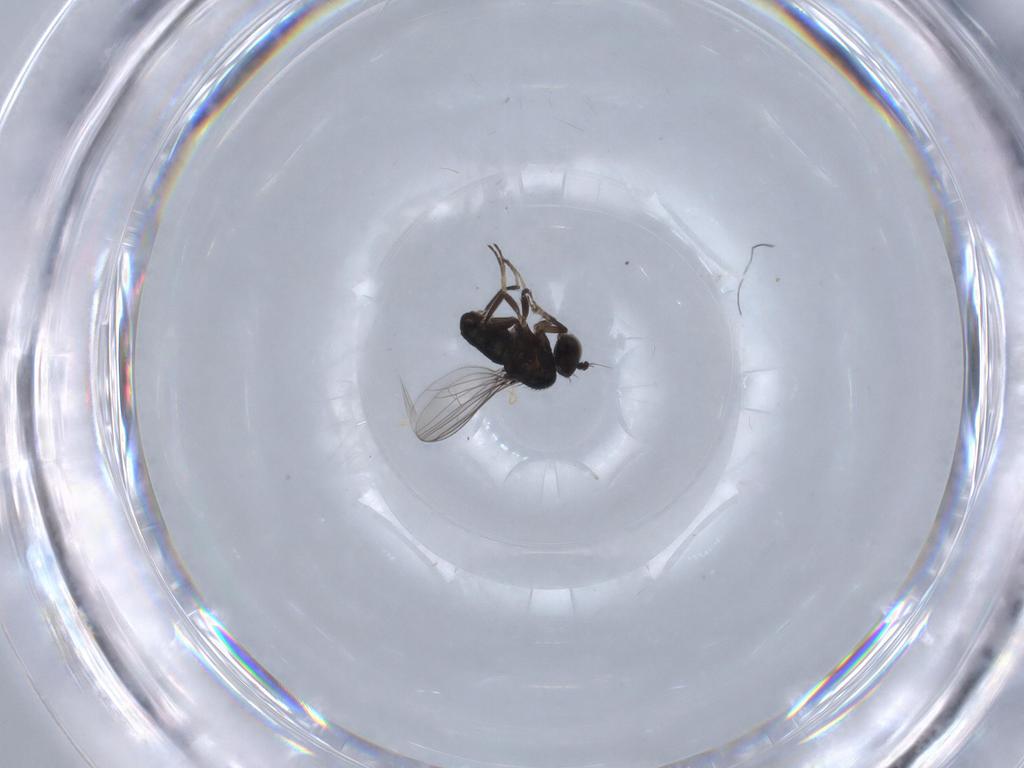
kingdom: Animalia
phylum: Arthropoda
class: Insecta
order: Diptera
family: Dolichopodidae
